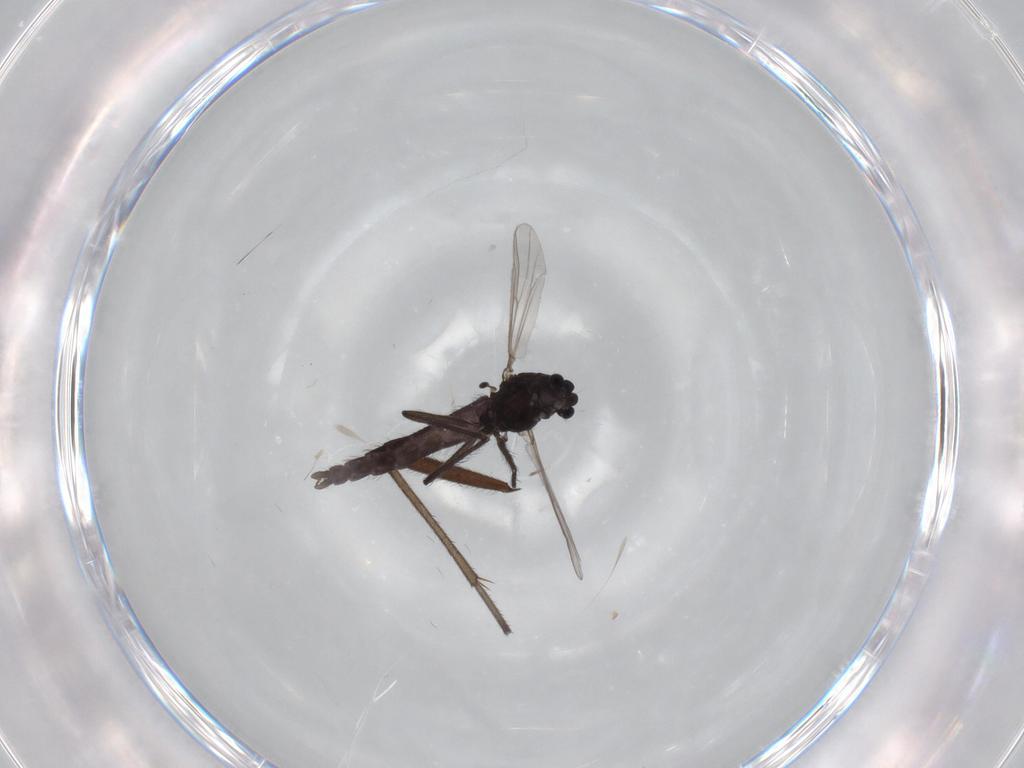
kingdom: Animalia
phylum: Arthropoda
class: Insecta
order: Diptera
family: Chironomidae
